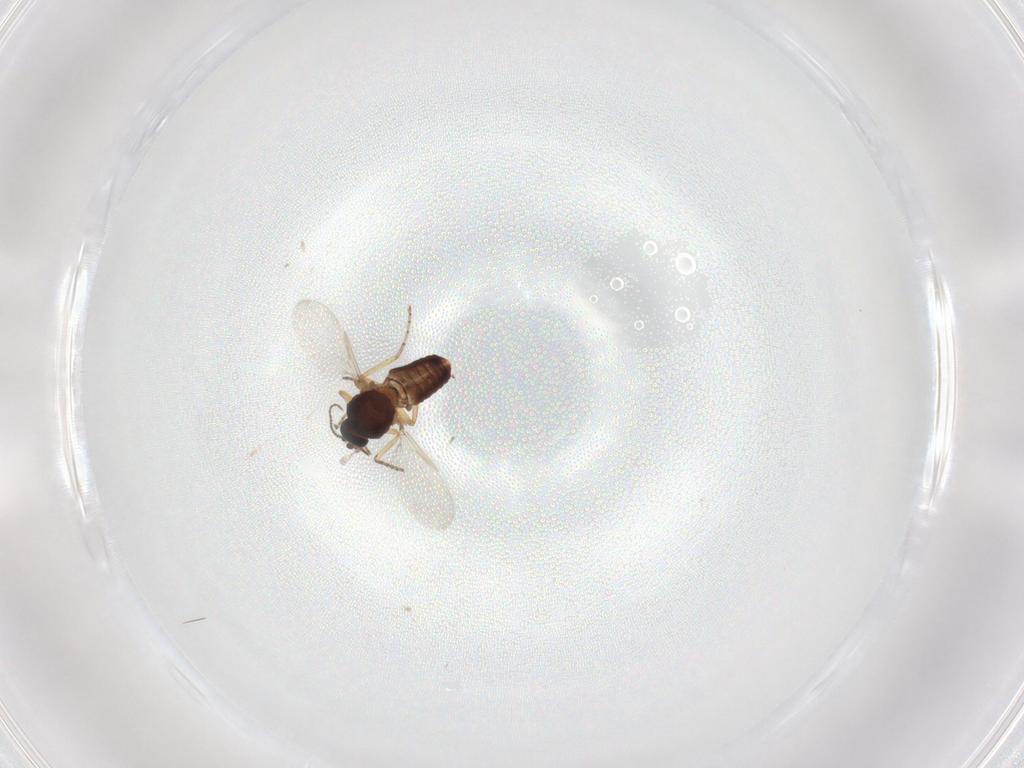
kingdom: Animalia
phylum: Arthropoda
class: Insecta
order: Diptera
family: Ceratopogonidae
